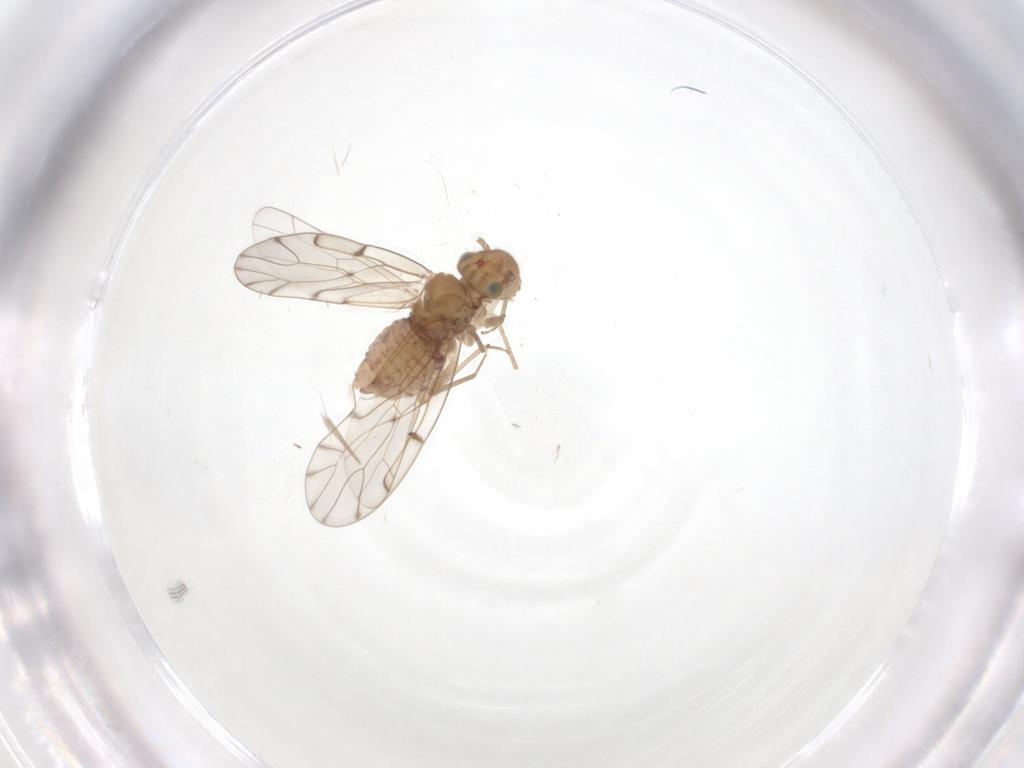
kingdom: Animalia
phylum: Arthropoda
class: Insecta
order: Psocodea
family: Ectopsocidae
